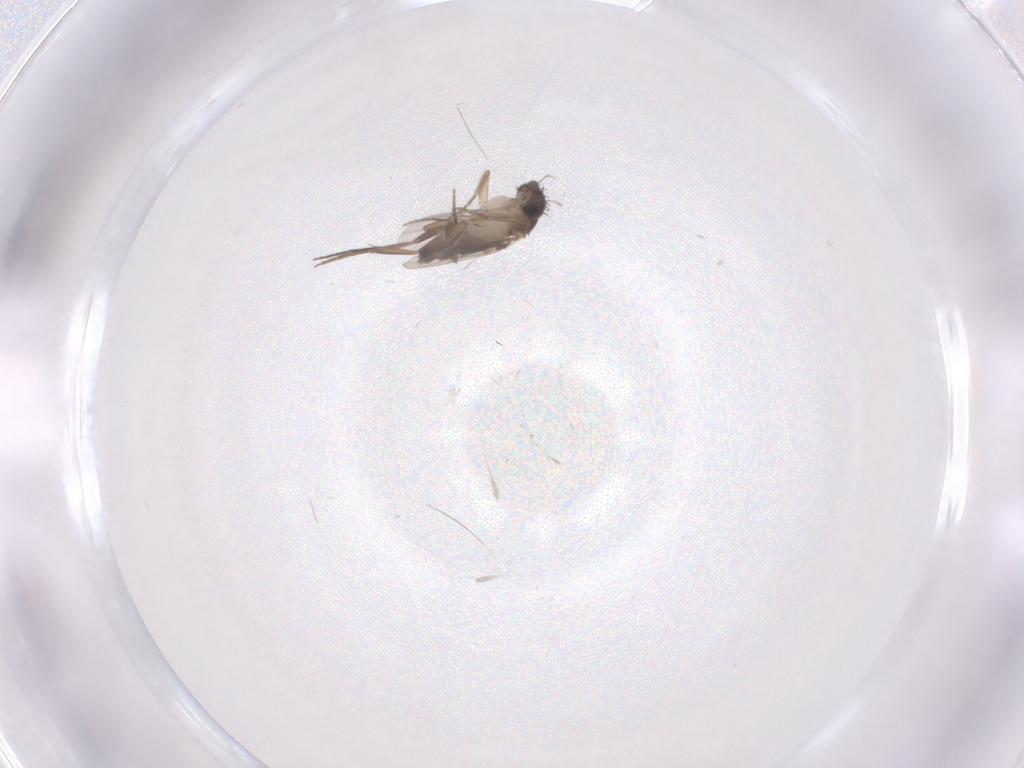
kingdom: Animalia
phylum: Arthropoda
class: Insecta
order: Diptera
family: Phoridae
